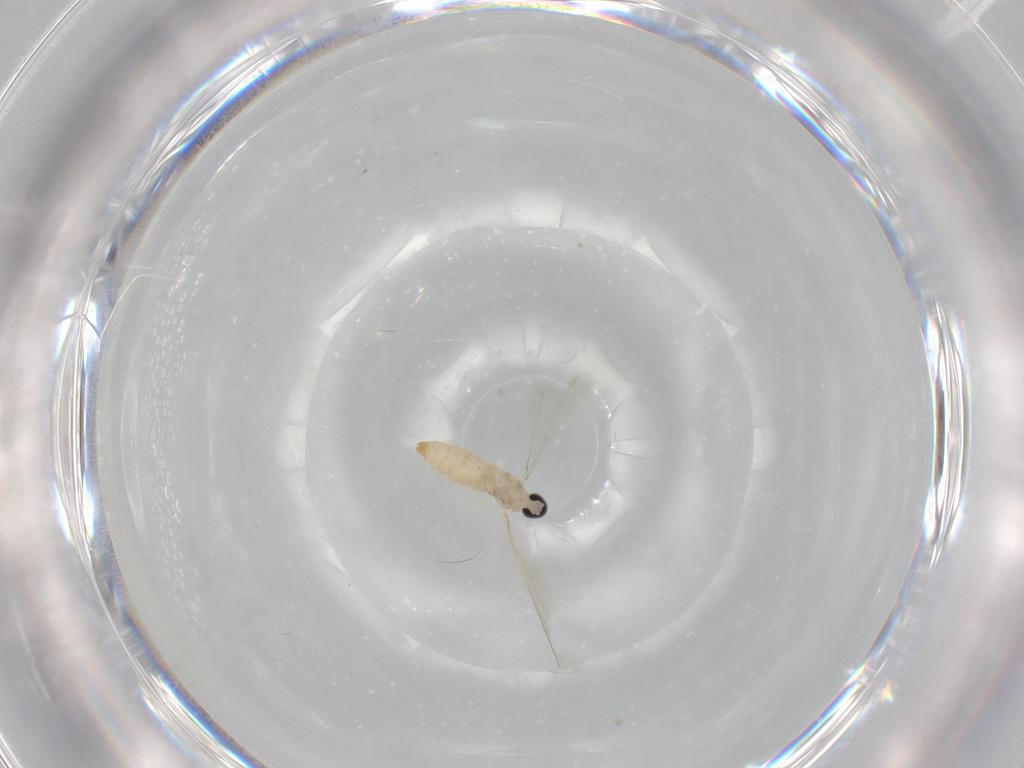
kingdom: Animalia
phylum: Arthropoda
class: Insecta
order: Diptera
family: Cecidomyiidae
